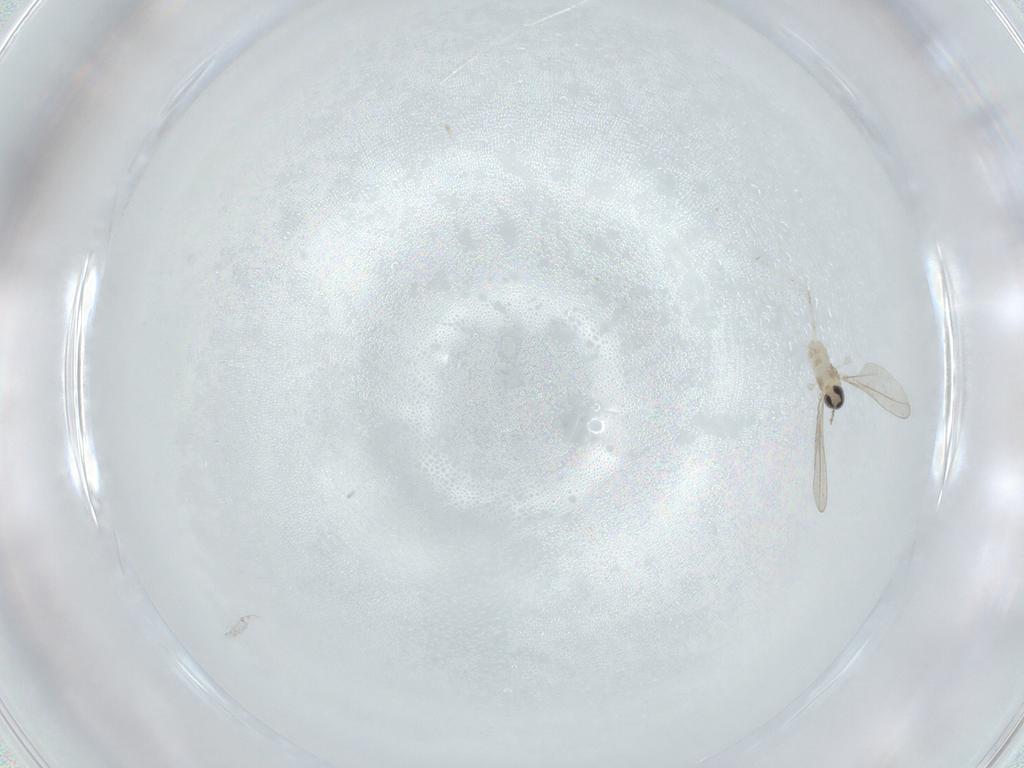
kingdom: Animalia
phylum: Arthropoda
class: Insecta
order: Diptera
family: Cecidomyiidae
